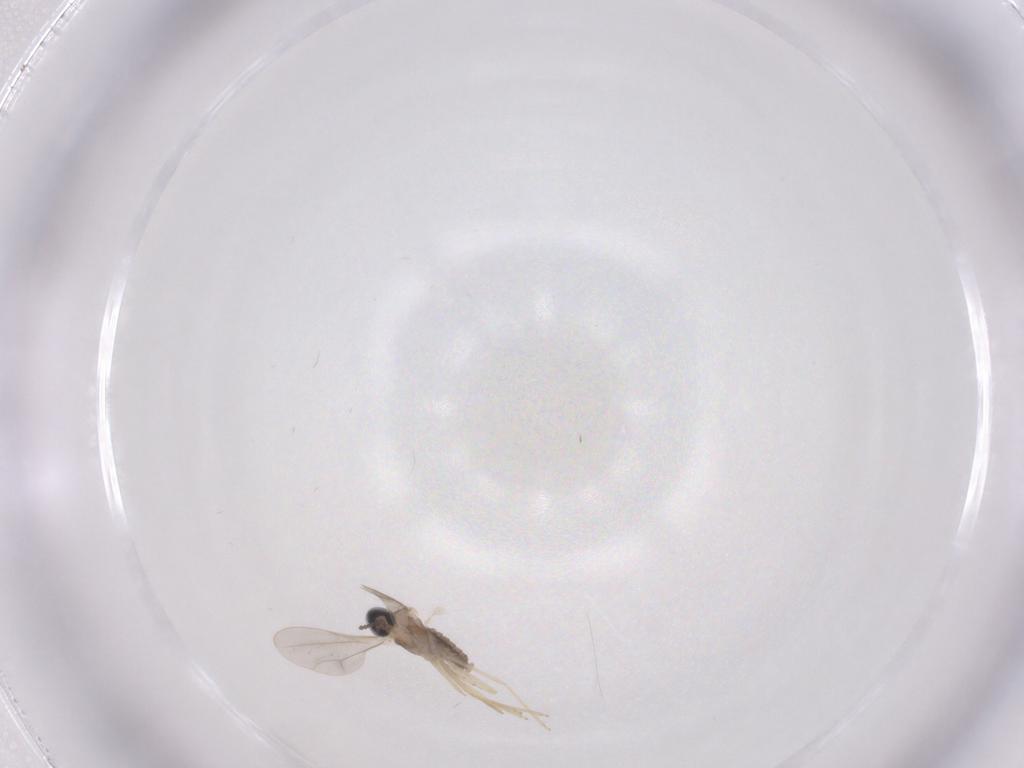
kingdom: Animalia
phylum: Arthropoda
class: Insecta
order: Diptera
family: Cecidomyiidae
